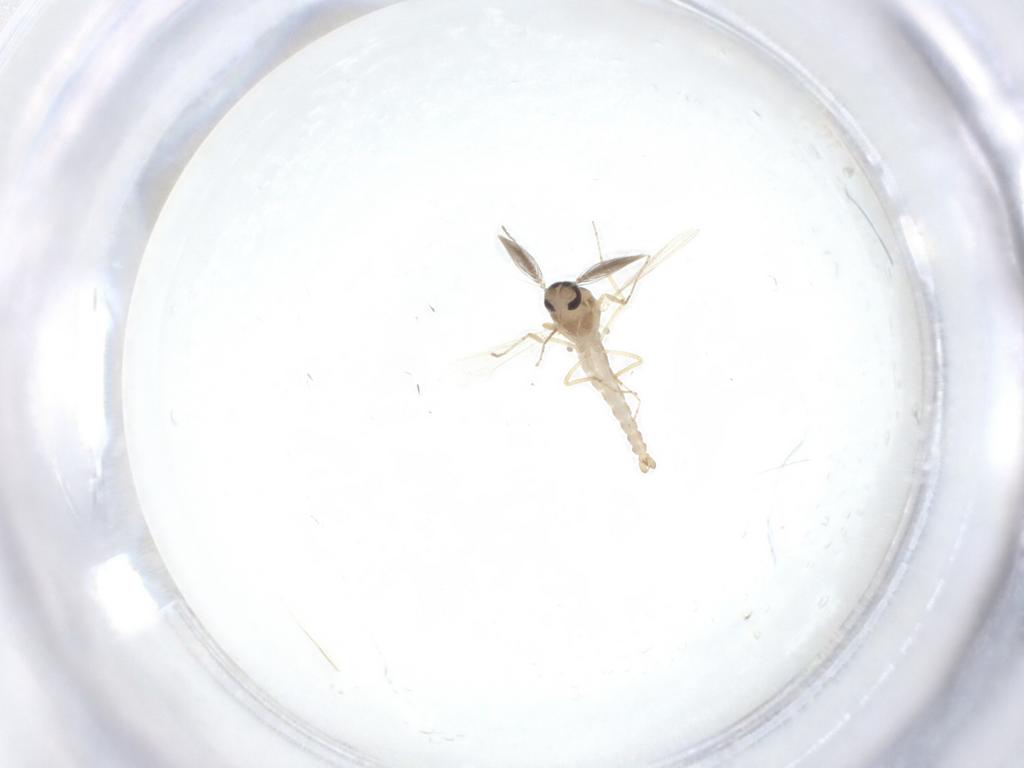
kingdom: Animalia
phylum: Arthropoda
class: Insecta
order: Diptera
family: Ceratopogonidae
